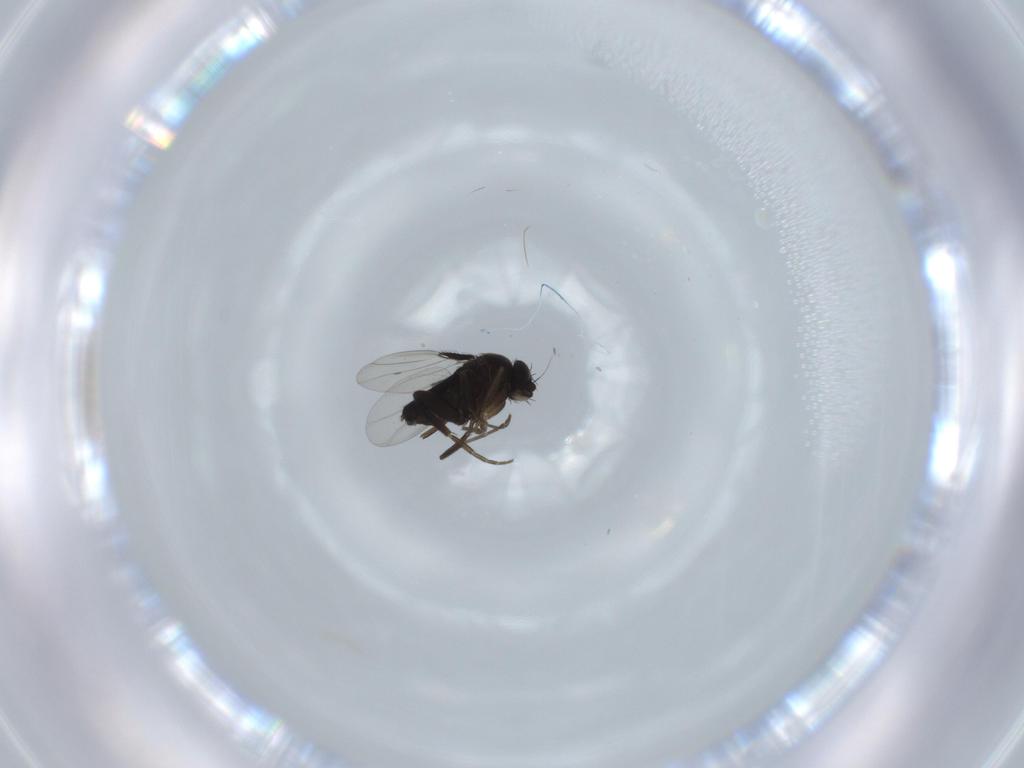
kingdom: Animalia
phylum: Arthropoda
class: Insecta
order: Diptera
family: Phoridae
